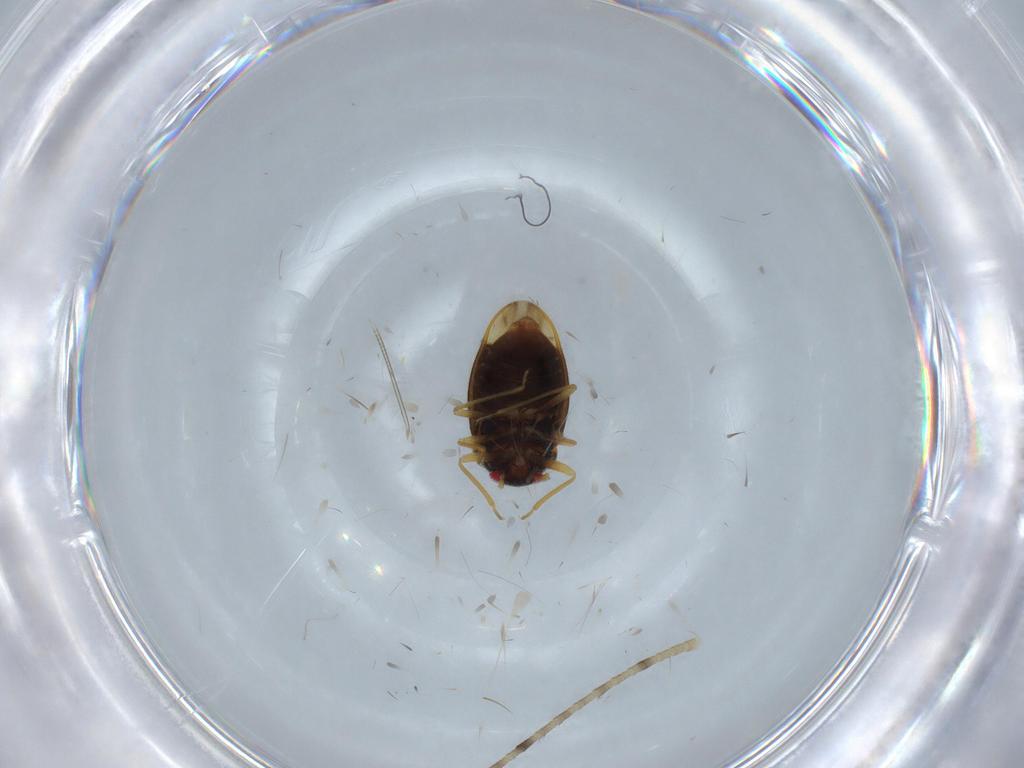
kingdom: Animalia
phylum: Arthropoda
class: Insecta
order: Hemiptera
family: Schizopteridae
